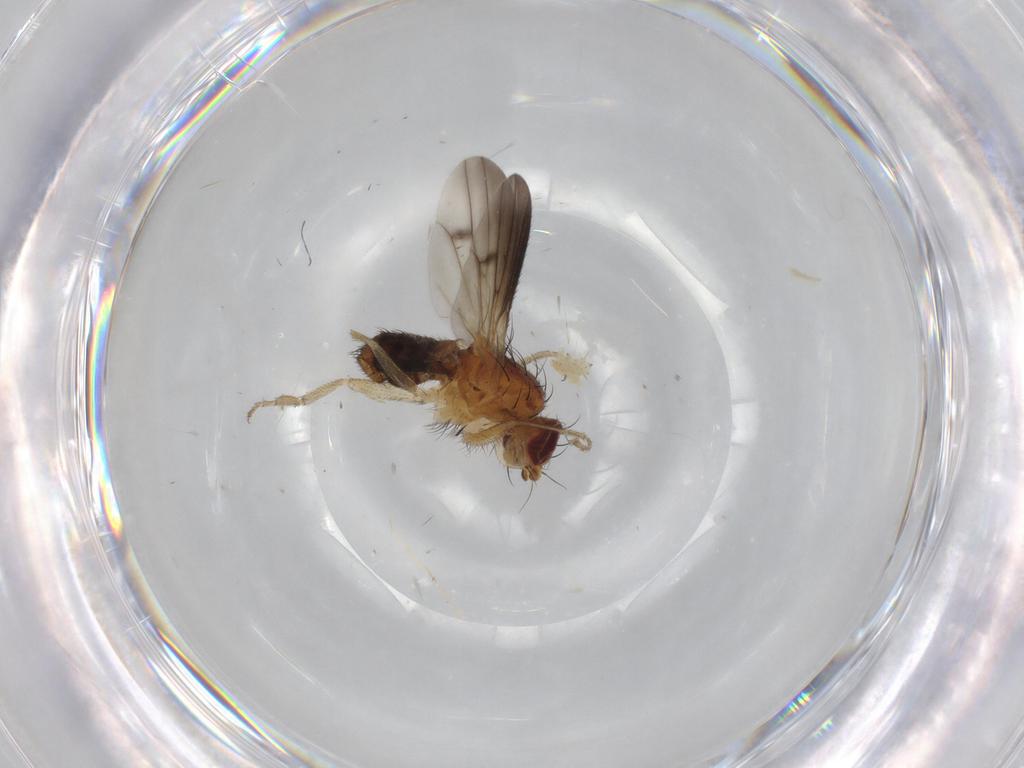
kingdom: Animalia
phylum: Arthropoda
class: Insecta
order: Diptera
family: Heleomyzidae
